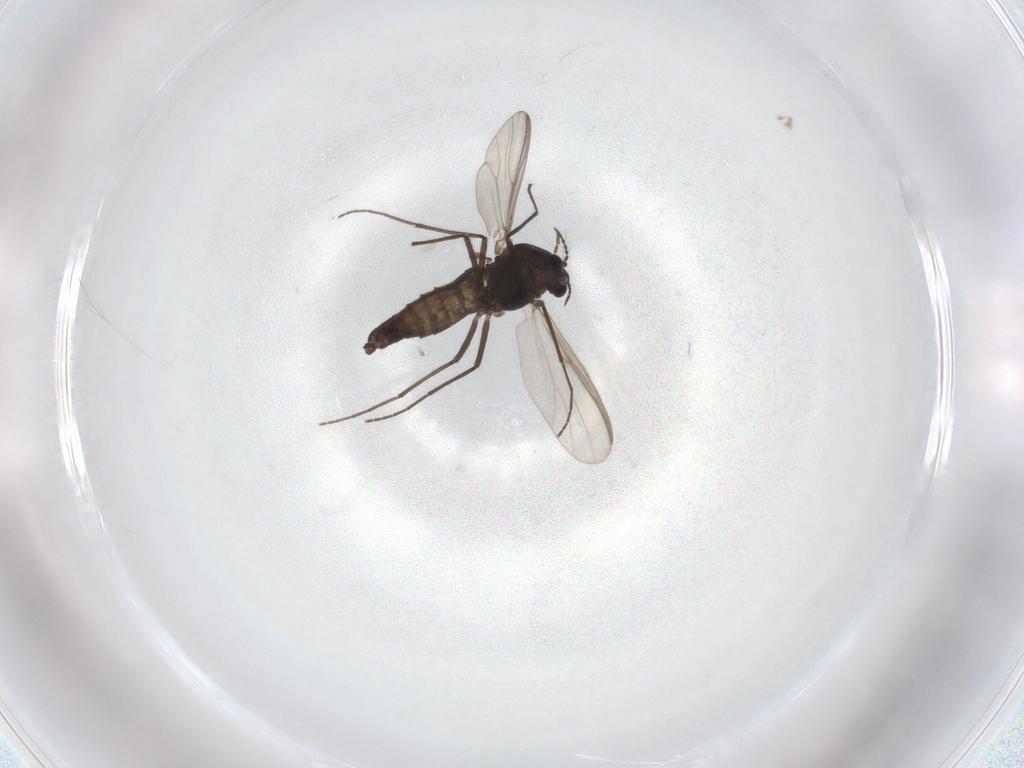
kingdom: Animalia
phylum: Arthropoda
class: Insecta
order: Diptera
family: Chironomidae
